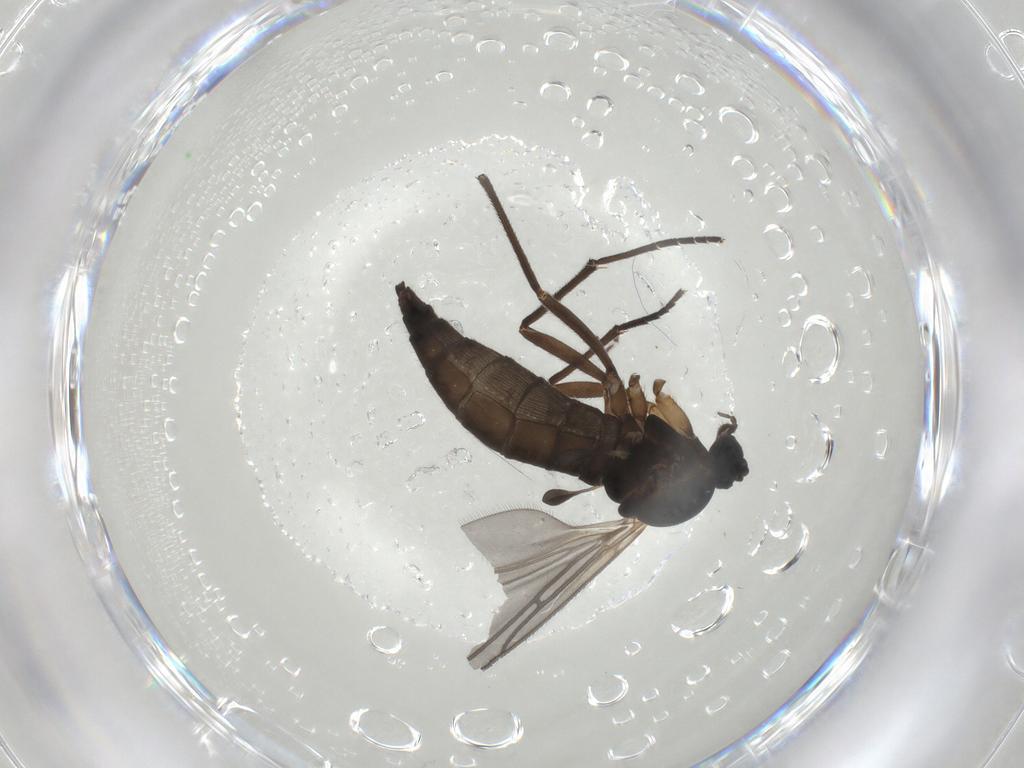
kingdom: Animalia
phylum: Arthropoda
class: Insecta
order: Diptera
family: Sciaridae
